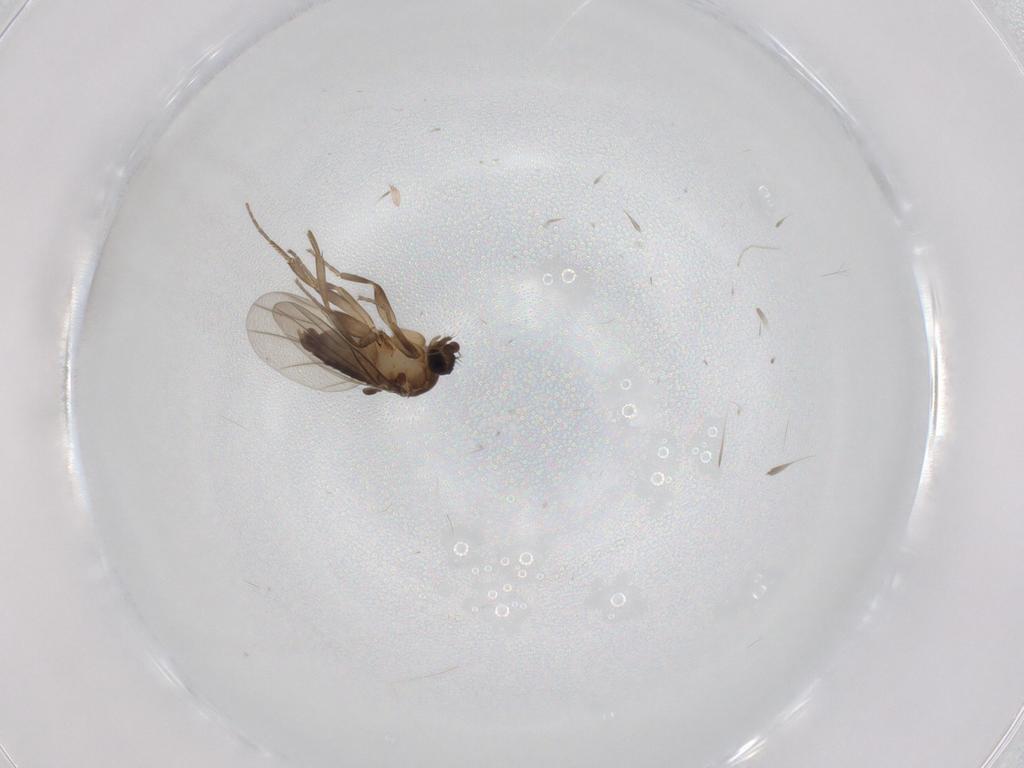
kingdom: Animalia
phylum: Arthropoda
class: Insecta
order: Diptera
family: Phoridae
